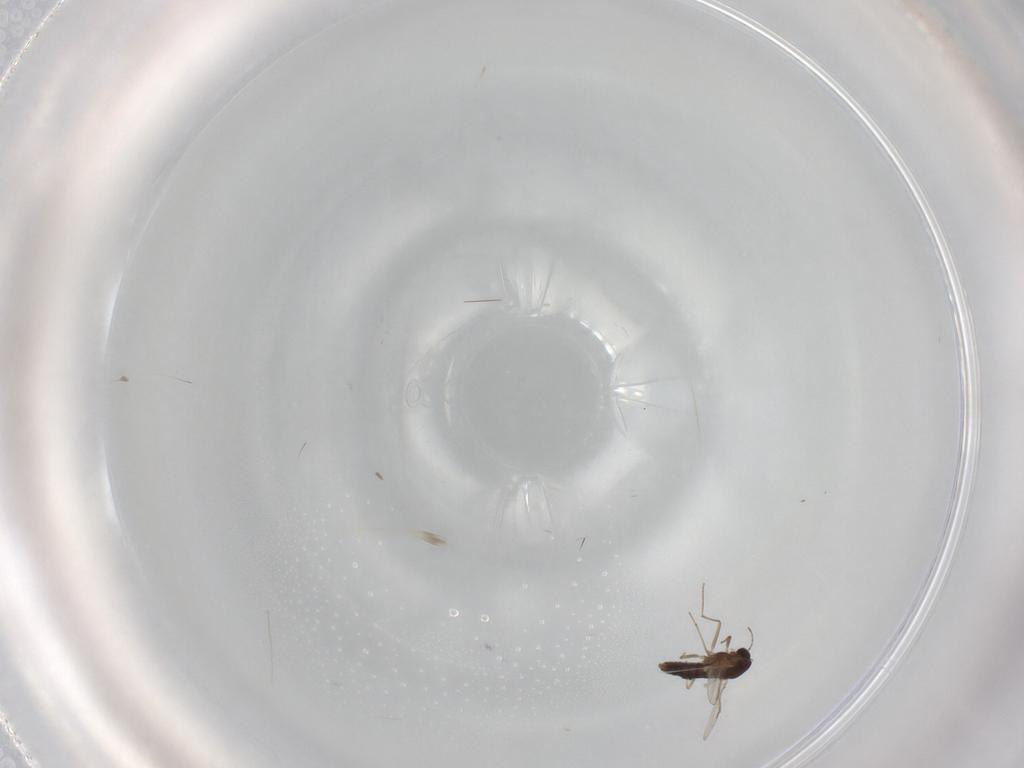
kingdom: Animalia
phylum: Arthropoda
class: Insecta
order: Diptera
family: Chironomidae
